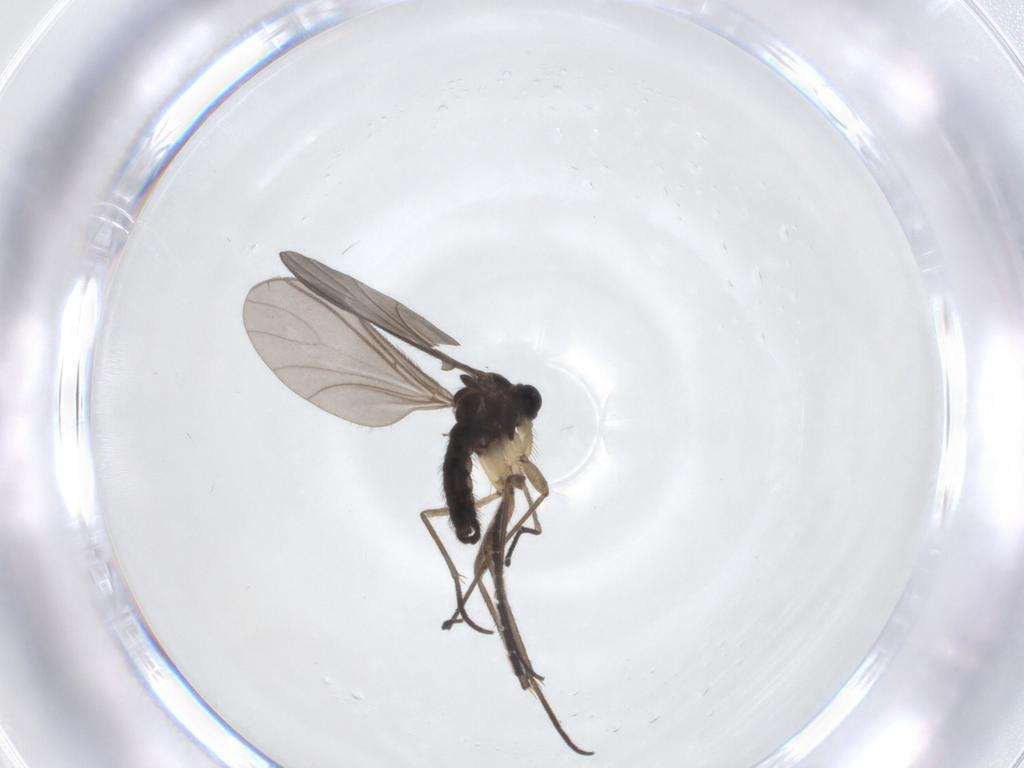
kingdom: Animalia
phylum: Arthropoda
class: Insecta
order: Diptera
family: Sciaridae
